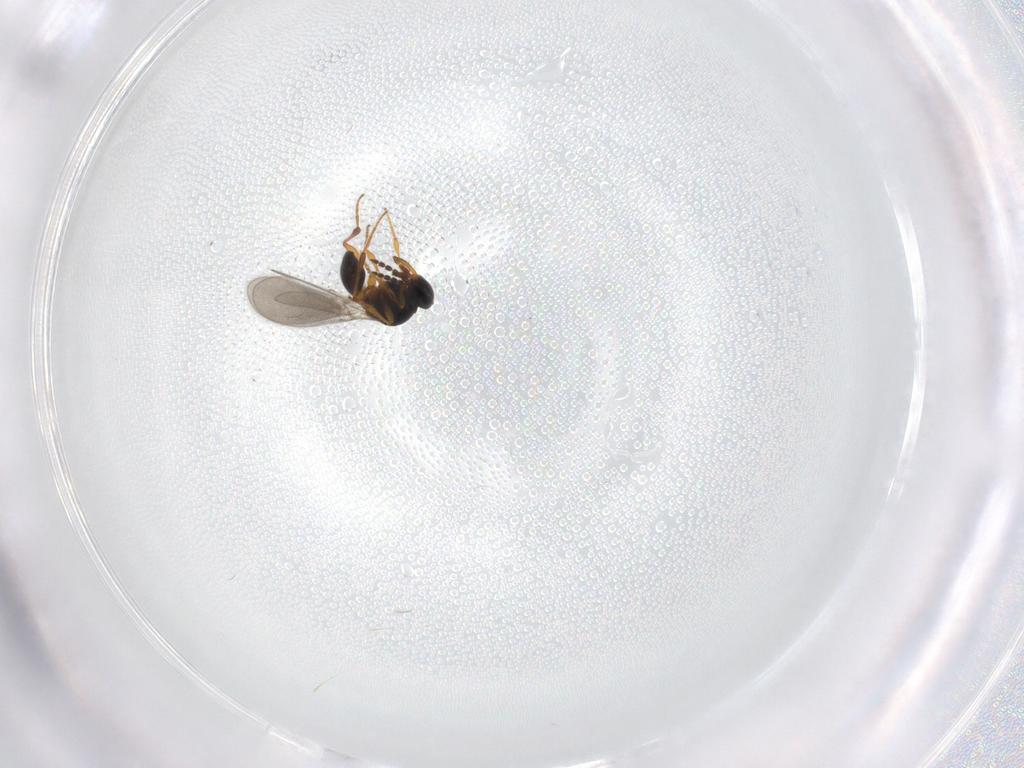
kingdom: Animalia
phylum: Arthropoda
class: Insecta
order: Hymenoptera
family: Platygastridae
